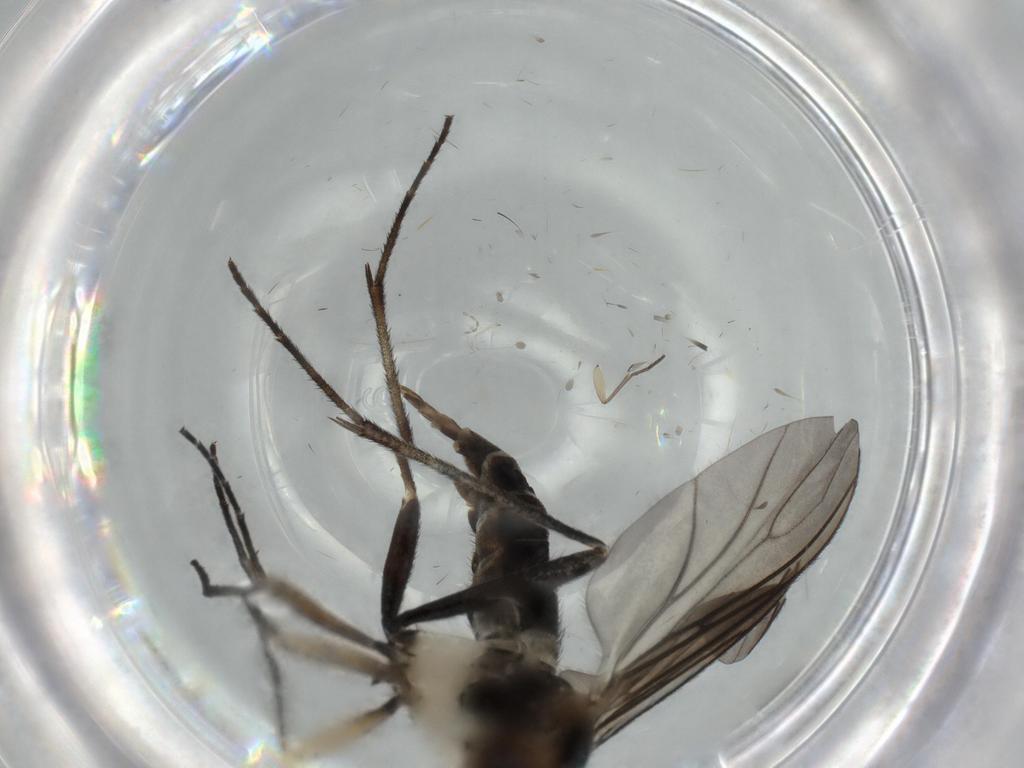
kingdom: Animalia
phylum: Arthropoda
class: Insecta
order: Diptera
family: Sciaridae
